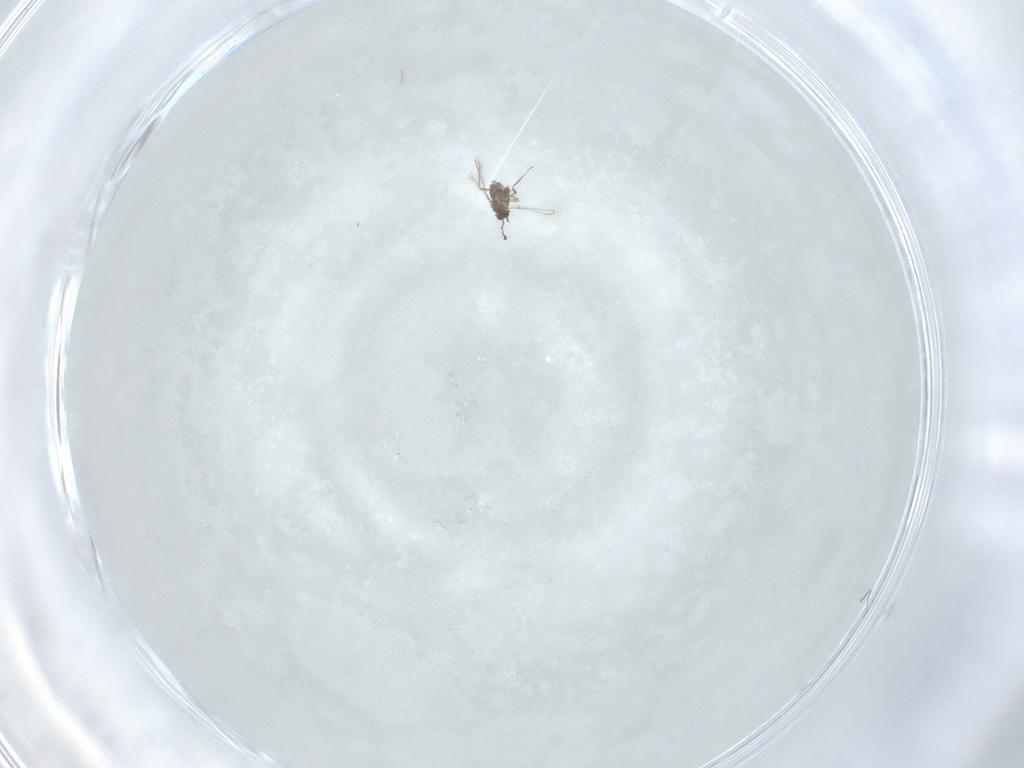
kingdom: Animalia
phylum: Arthropoda
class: Insecta
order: Hymenoptera
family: Mymaridae
